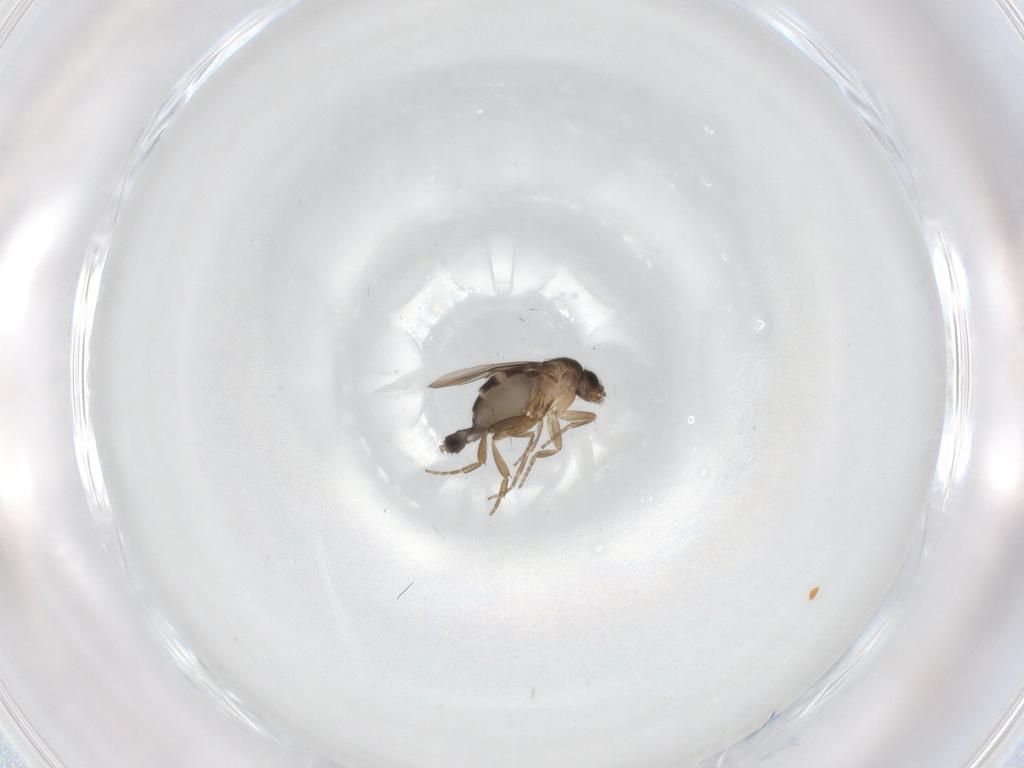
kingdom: Animalia
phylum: Arthropoda
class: Insecta
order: Diptera
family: Phoridae
